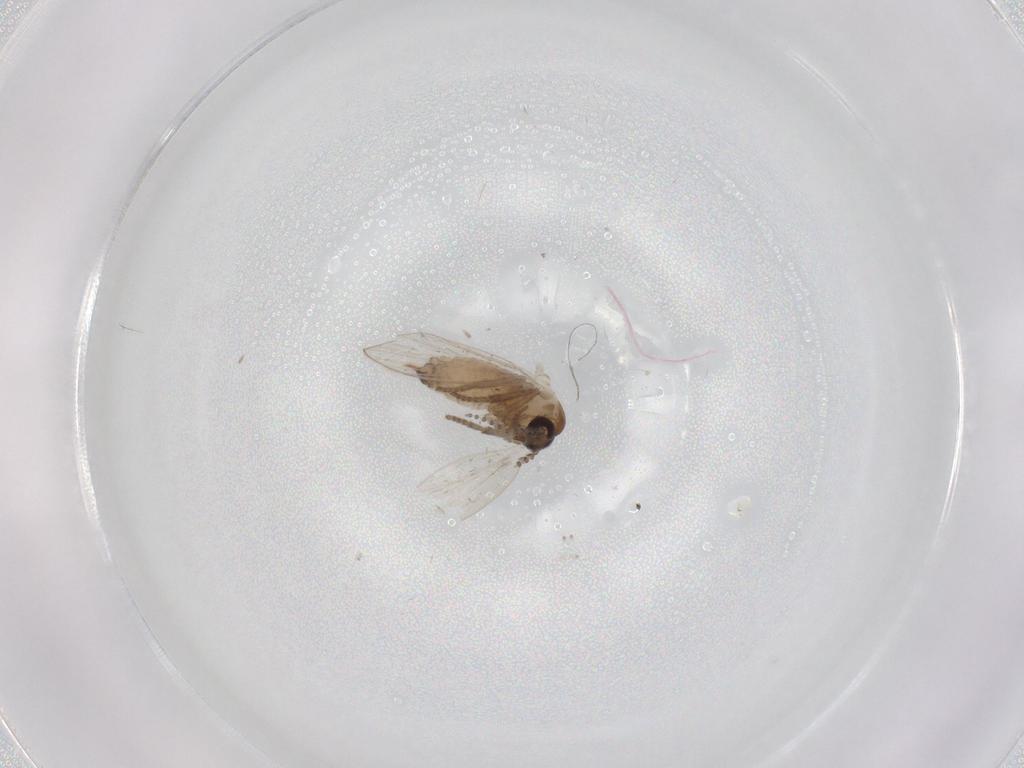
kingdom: Animalia
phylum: Arthropoda
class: Insecta
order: Diptera
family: Psychodidae
